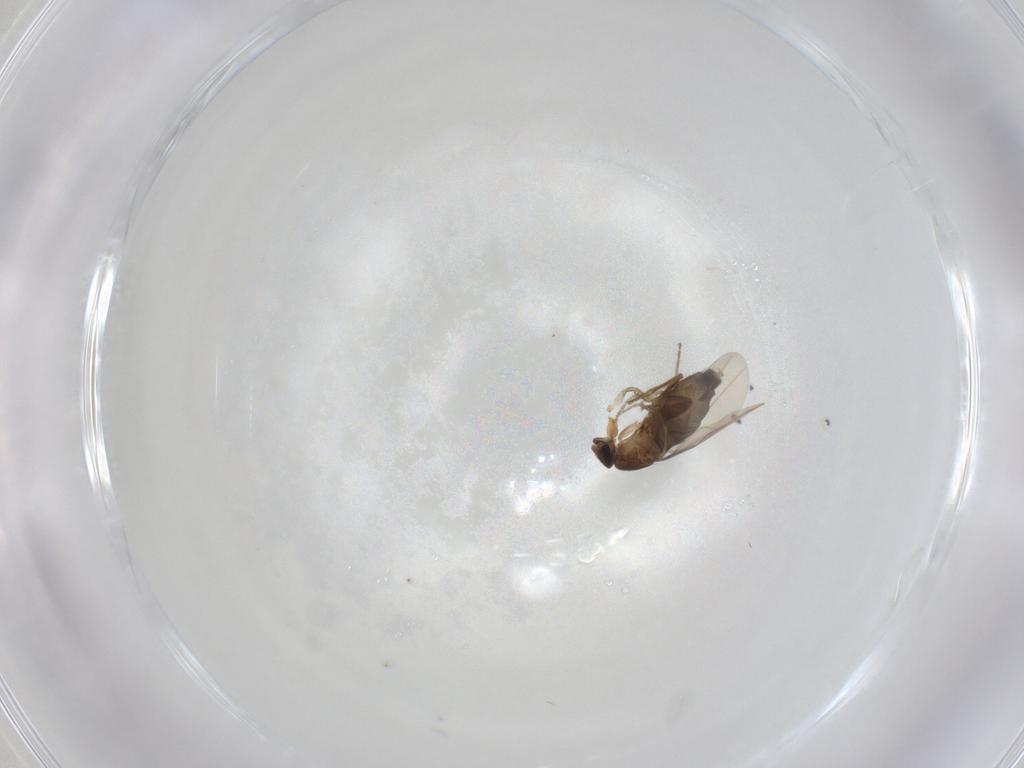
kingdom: Animalia
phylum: Arthropoda
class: Insecta
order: Diptera
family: Phoridae
